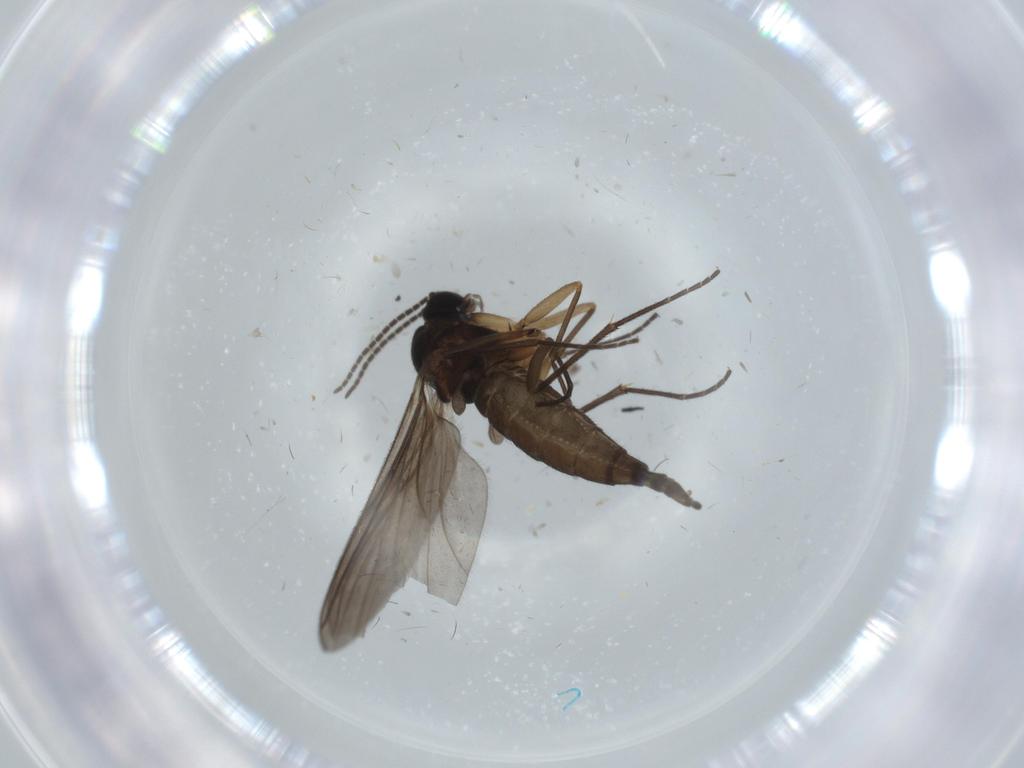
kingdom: Animalia
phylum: Arthropoda
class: Insecta
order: Diptera
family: Sciaridae
